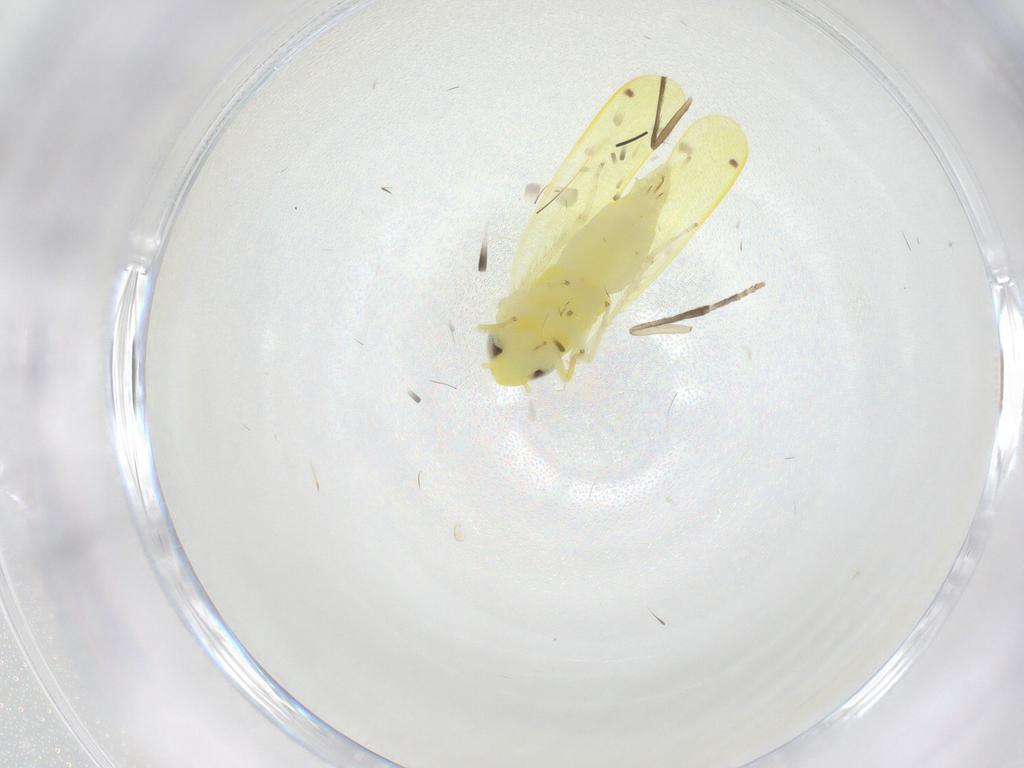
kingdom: Animalia
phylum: Arthropoda
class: Insecta
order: Hemiptera
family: Cicadellidae
